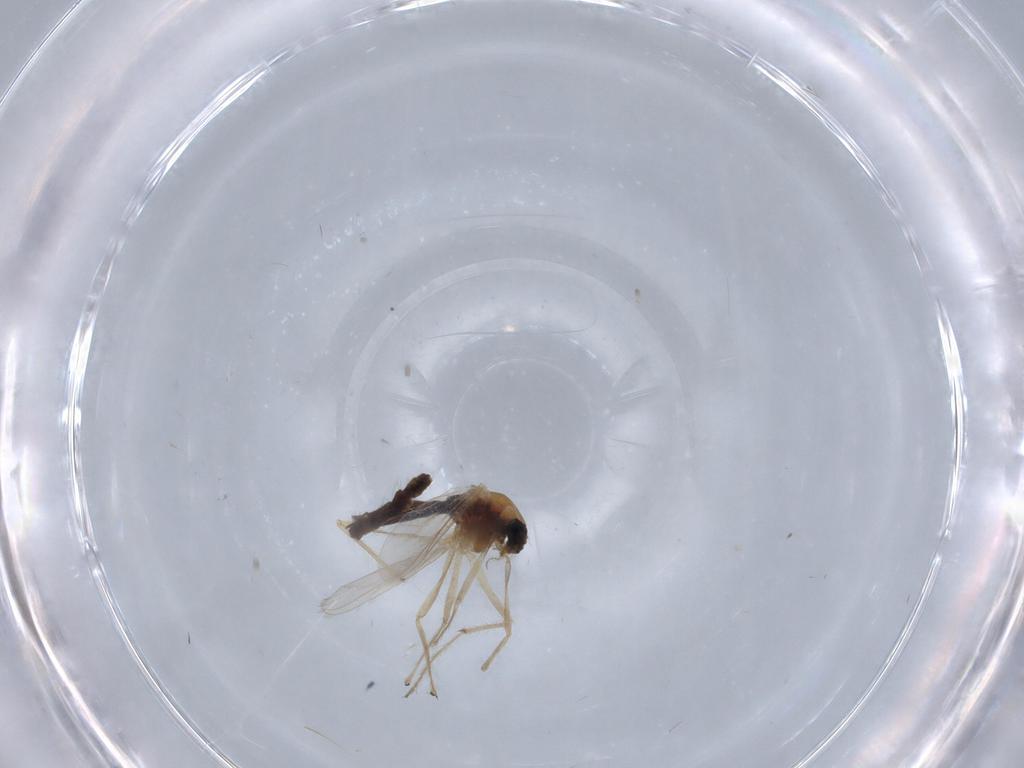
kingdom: Animalia
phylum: Arthropoda
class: Insecta
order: Diptera
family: Chironomidae
